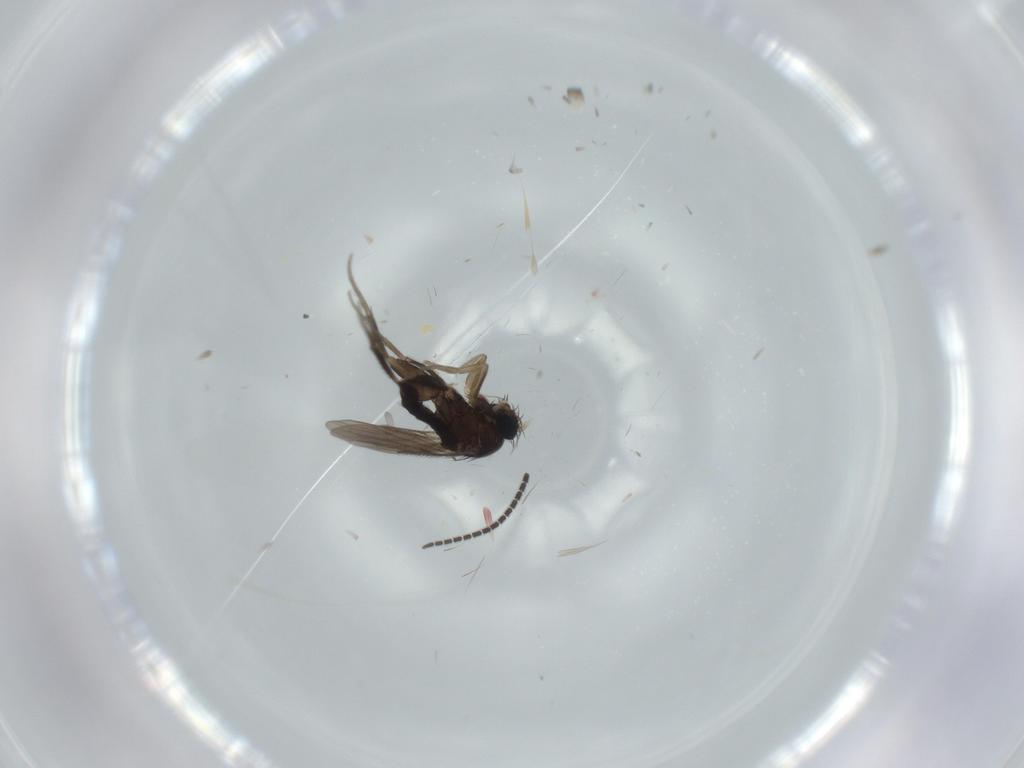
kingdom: Animalia
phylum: Arthropoda
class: Insecta
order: Diptera
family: Sciaridae
